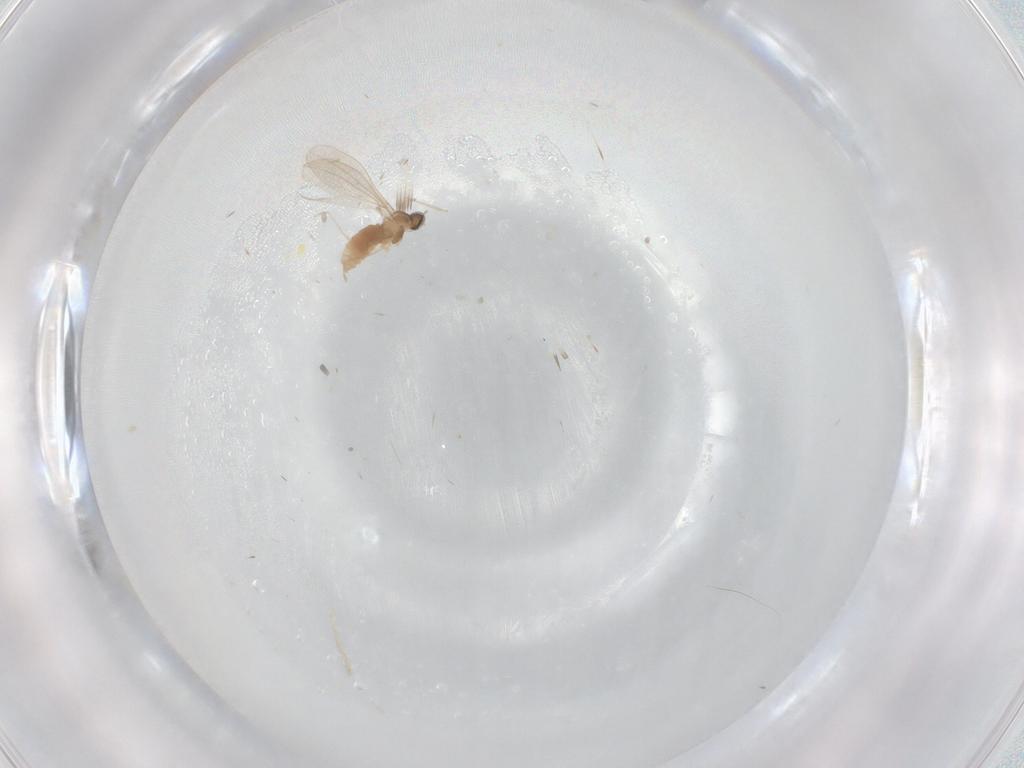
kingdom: Animalia
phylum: Arthropoda
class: Insecta
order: Diptera
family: Cecidomyiidae
